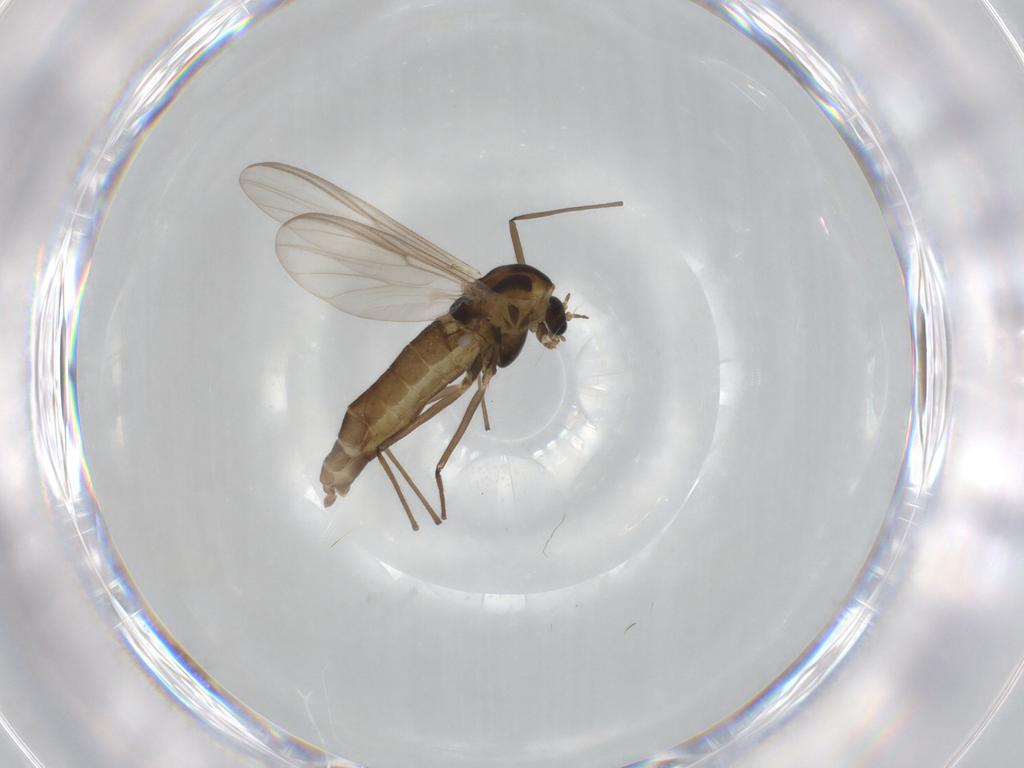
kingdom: Animalia
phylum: Arthropoda
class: Insecta
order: Diptera
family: Chironomidae
